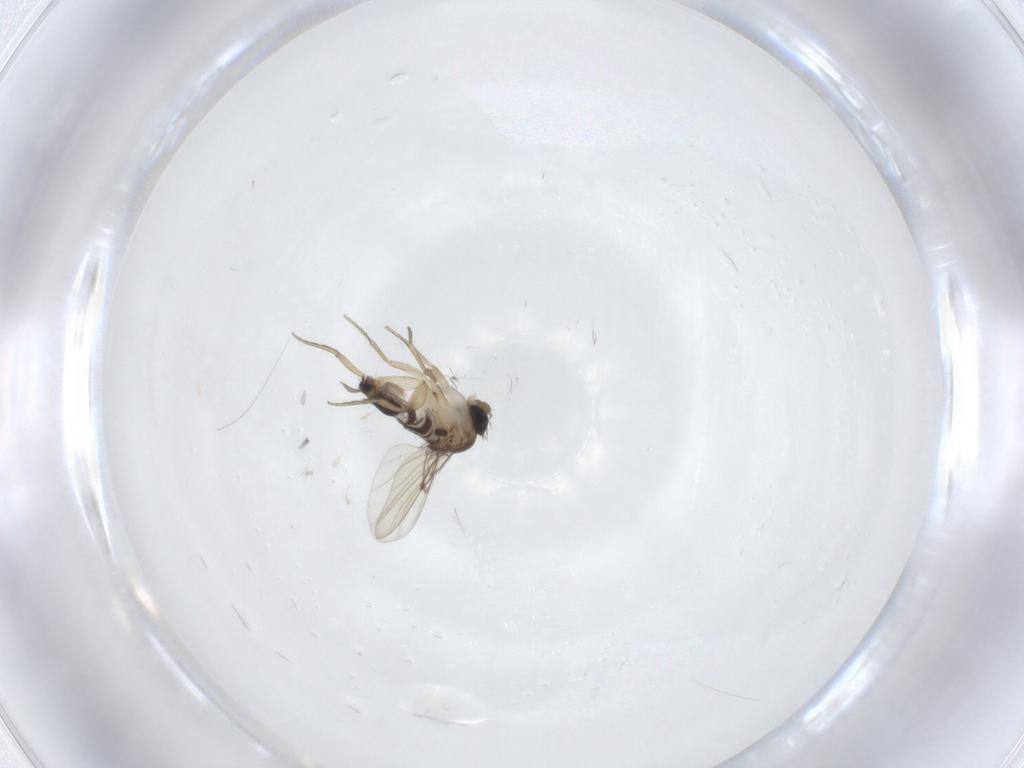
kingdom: Animalia
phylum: Arthropoda
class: Insecta
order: Diptera
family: Sciaridae
